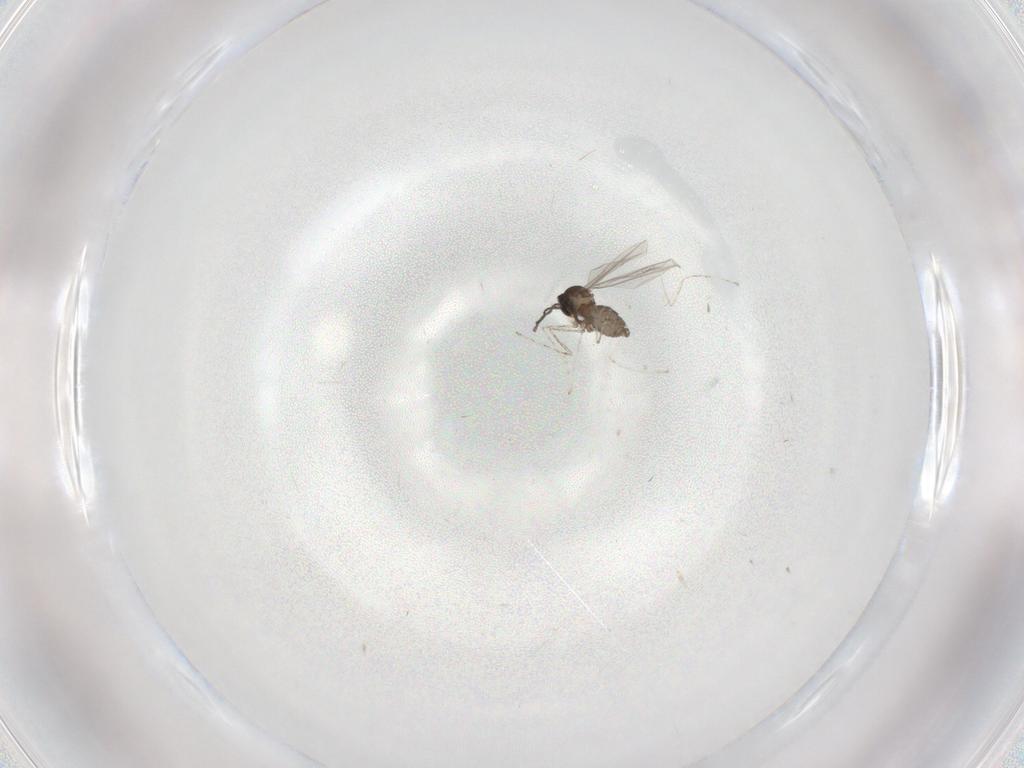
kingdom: Animalia
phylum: Arthropoda
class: Insecta
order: Diptera
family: Cecidomyiidae
